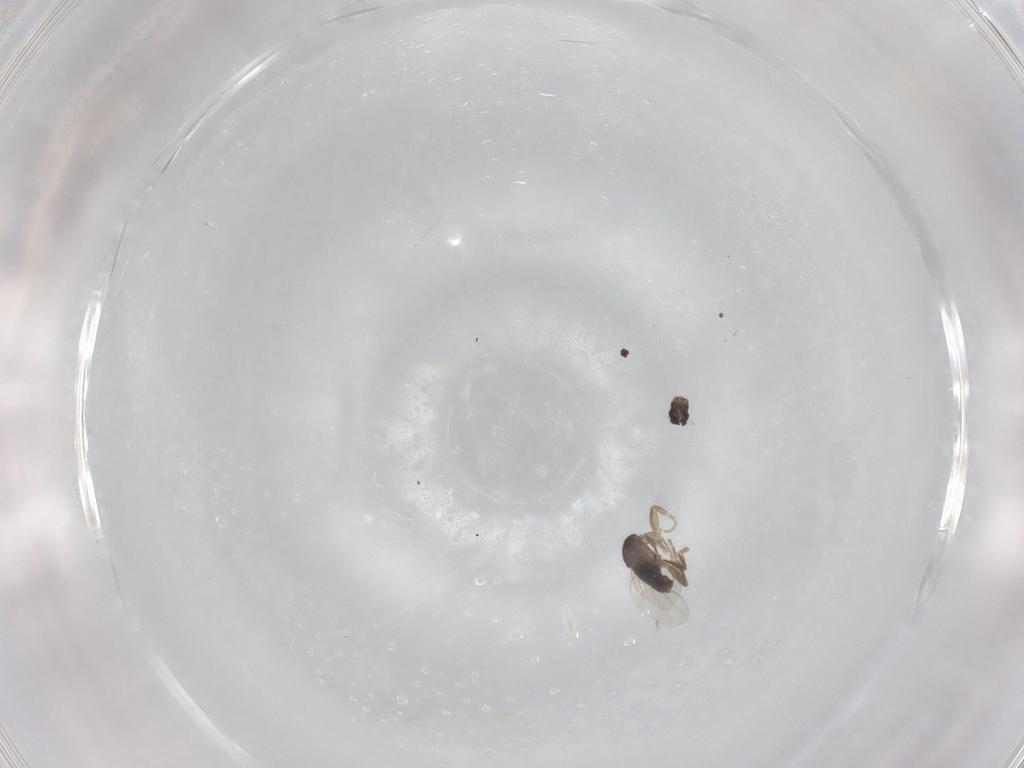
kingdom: Animalia
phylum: Arthropoda
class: Insecta
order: Diptera
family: Phoridae
